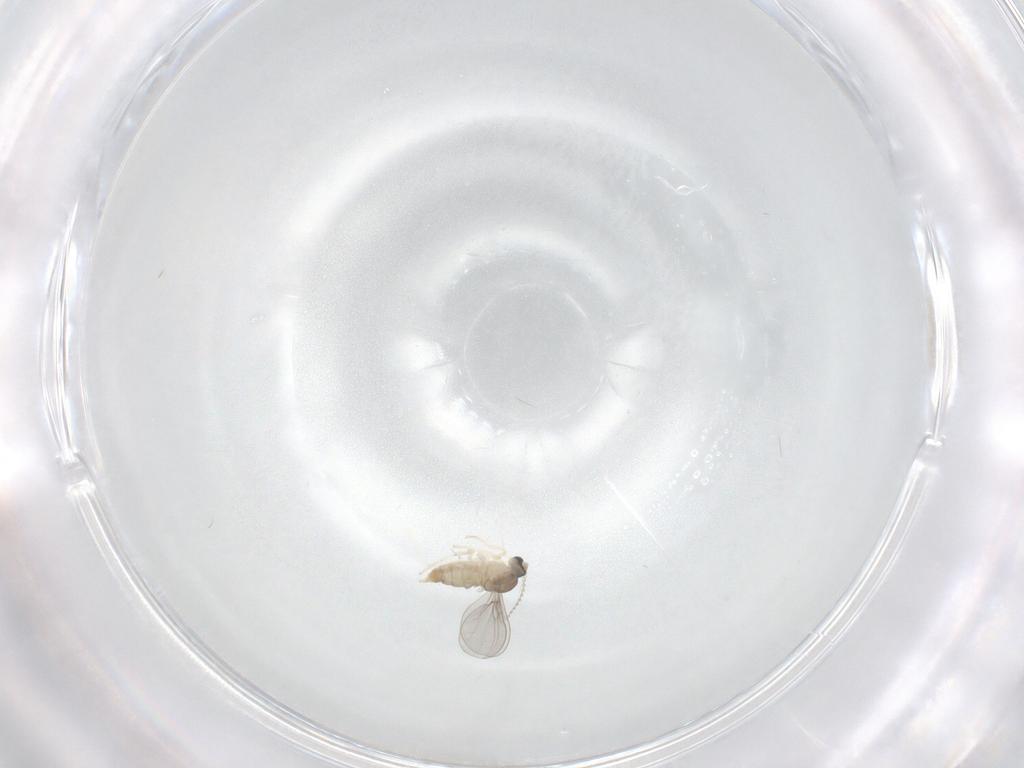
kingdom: Animalia
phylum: Arthropoda
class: Insecta
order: Diptera
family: Cecidomyiidae
